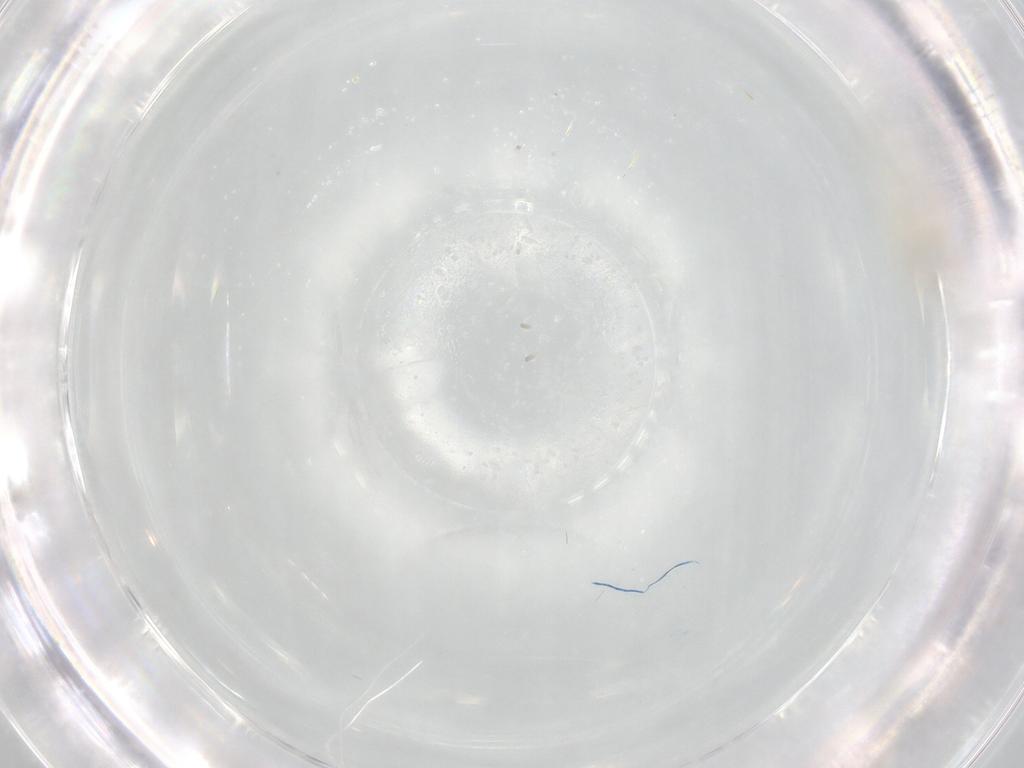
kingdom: Animalia
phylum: Arthropoda
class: Insecta
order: Diptera
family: Cecidomyiidae
